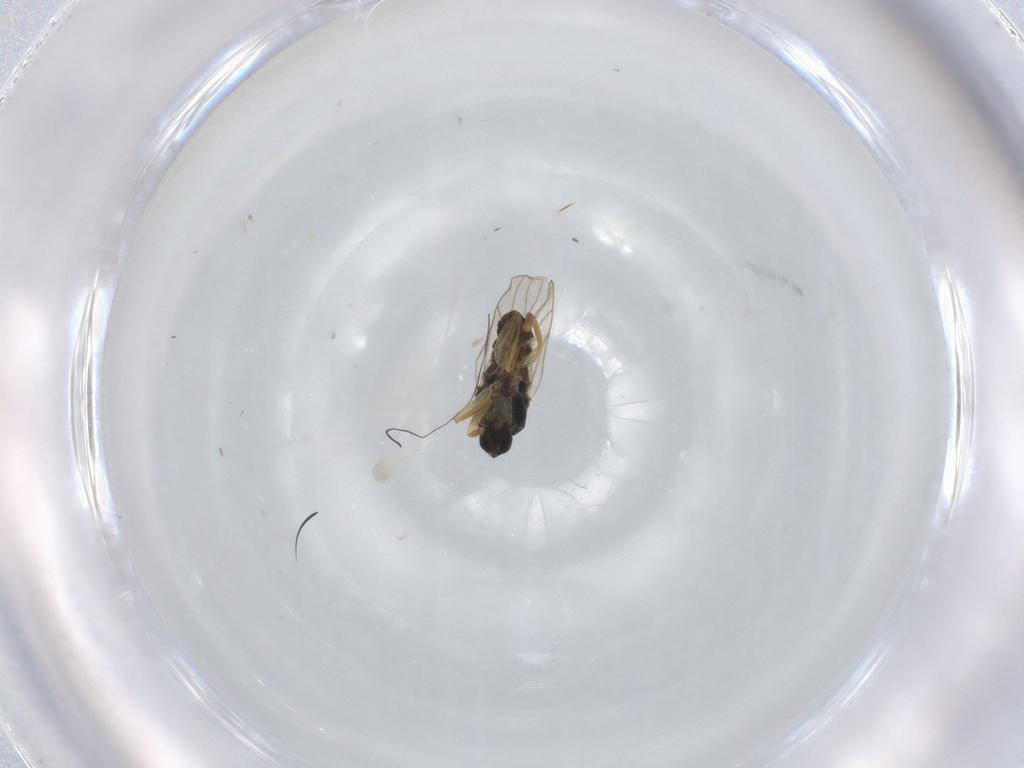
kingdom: Animalia
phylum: Arthropoda
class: Insecta
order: Diptera
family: Hybotidae
